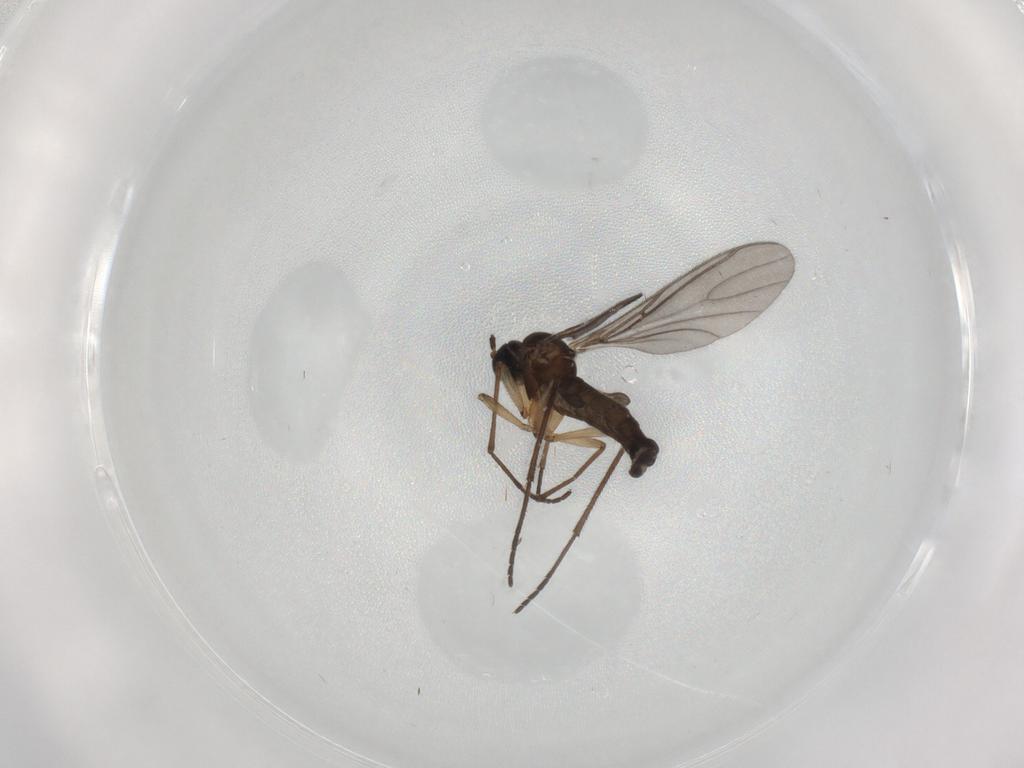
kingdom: Animalia
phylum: Arthropoda
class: Insecta
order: Diptera
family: Sciaridae
